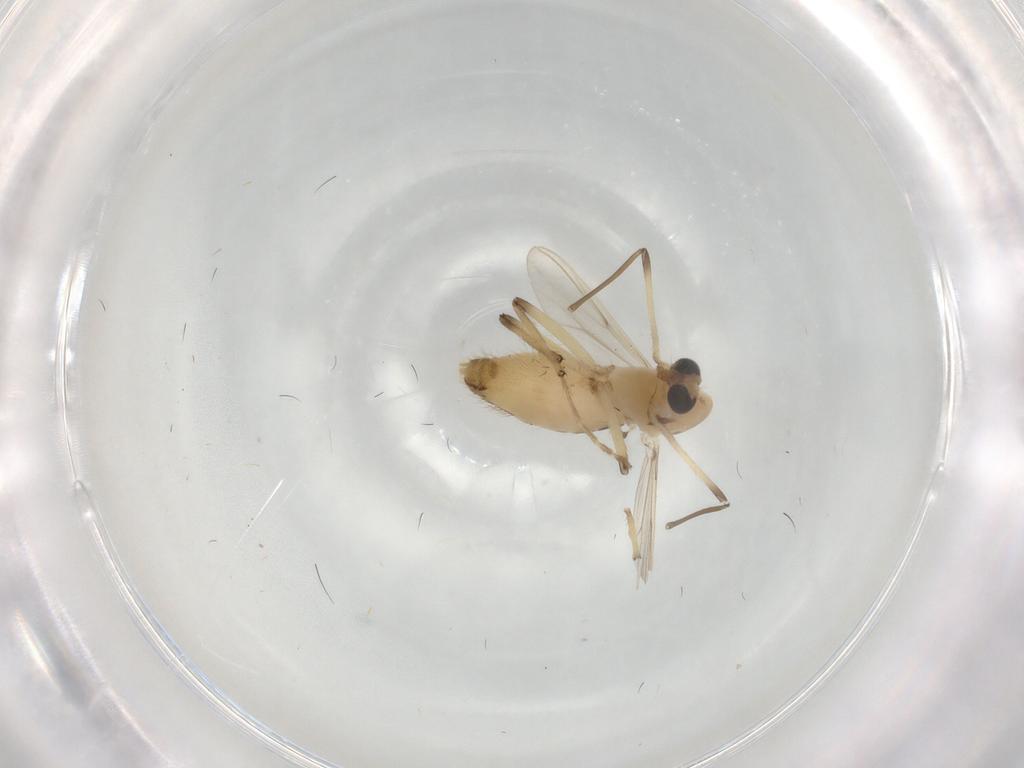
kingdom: Animalia
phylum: Arthropoda
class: Insecta
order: Diptera
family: Chironomidae
